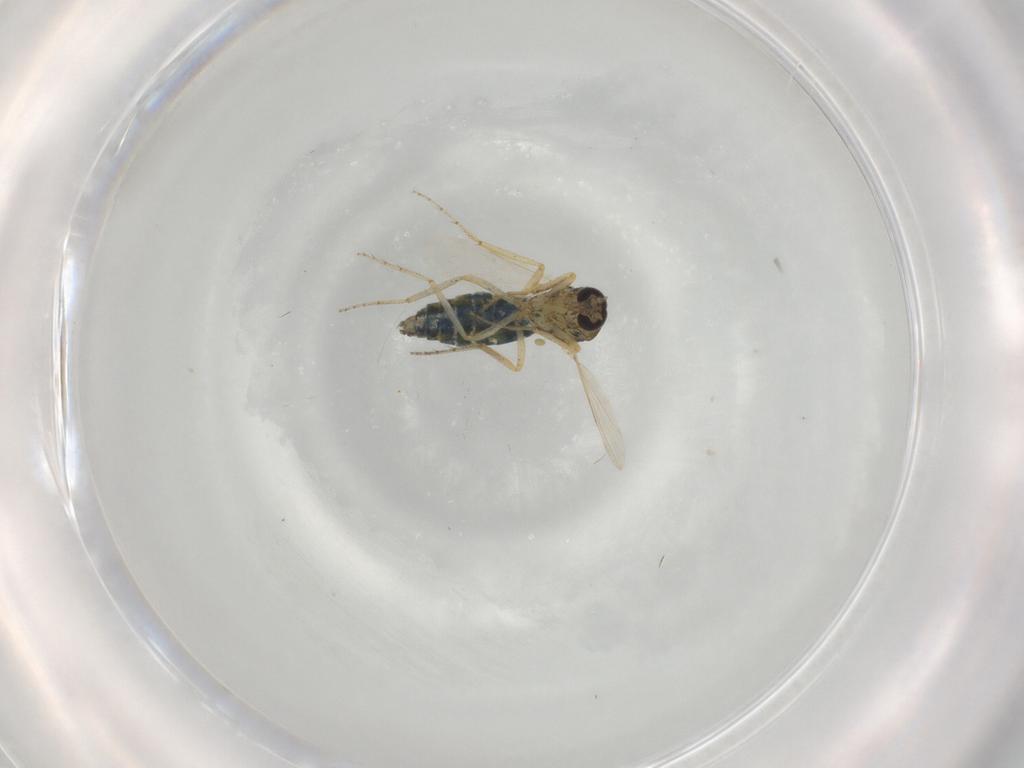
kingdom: Animalia
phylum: Arthropoda
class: Insecta
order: Diptera
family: Ceratopogonidae
